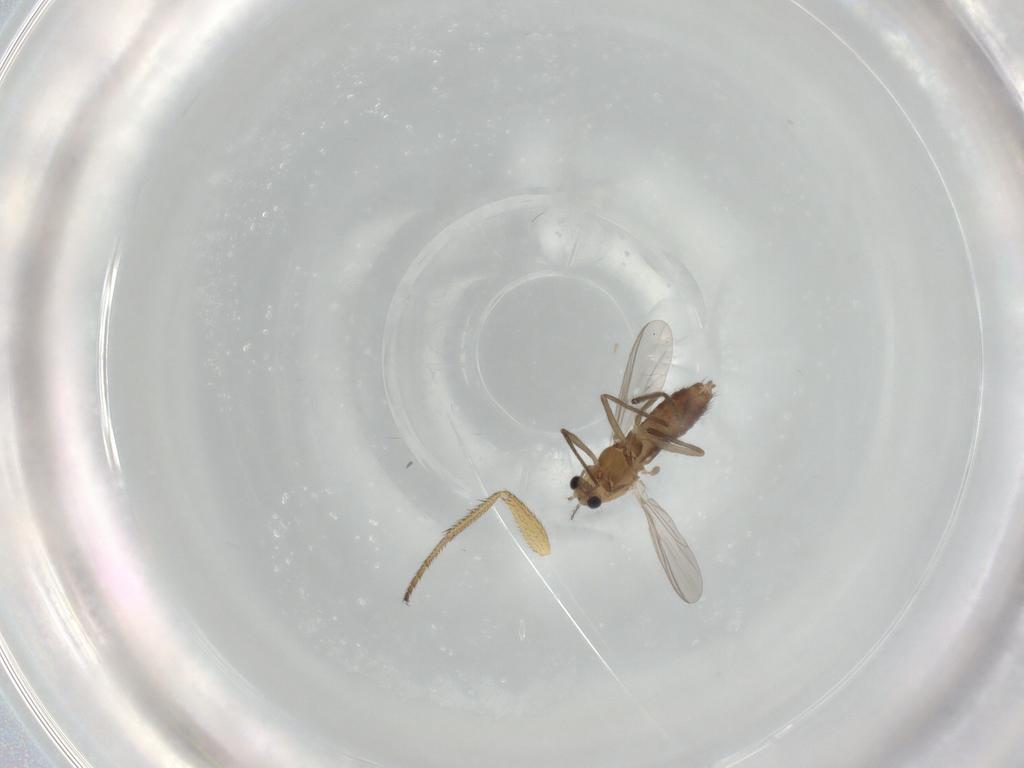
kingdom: Animalia
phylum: Arthropoda
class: Insecta
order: Diptera
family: Chironomidae
